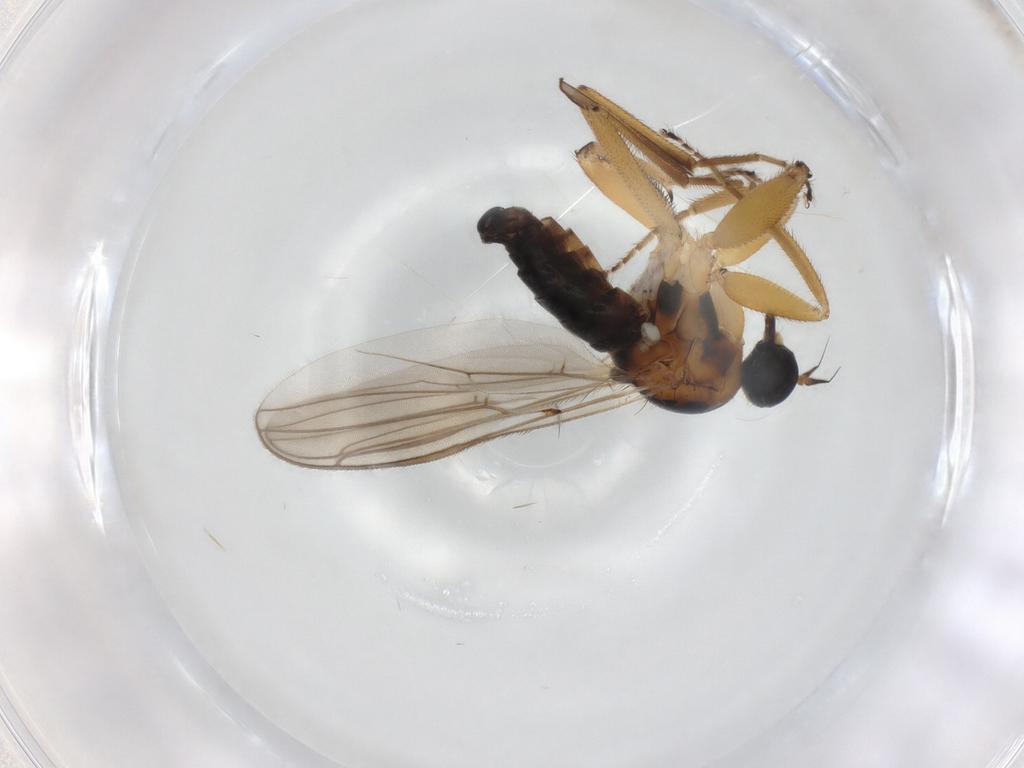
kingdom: Animalia
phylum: Arthropoda
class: Insecta
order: Diptera
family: Hybotidae
